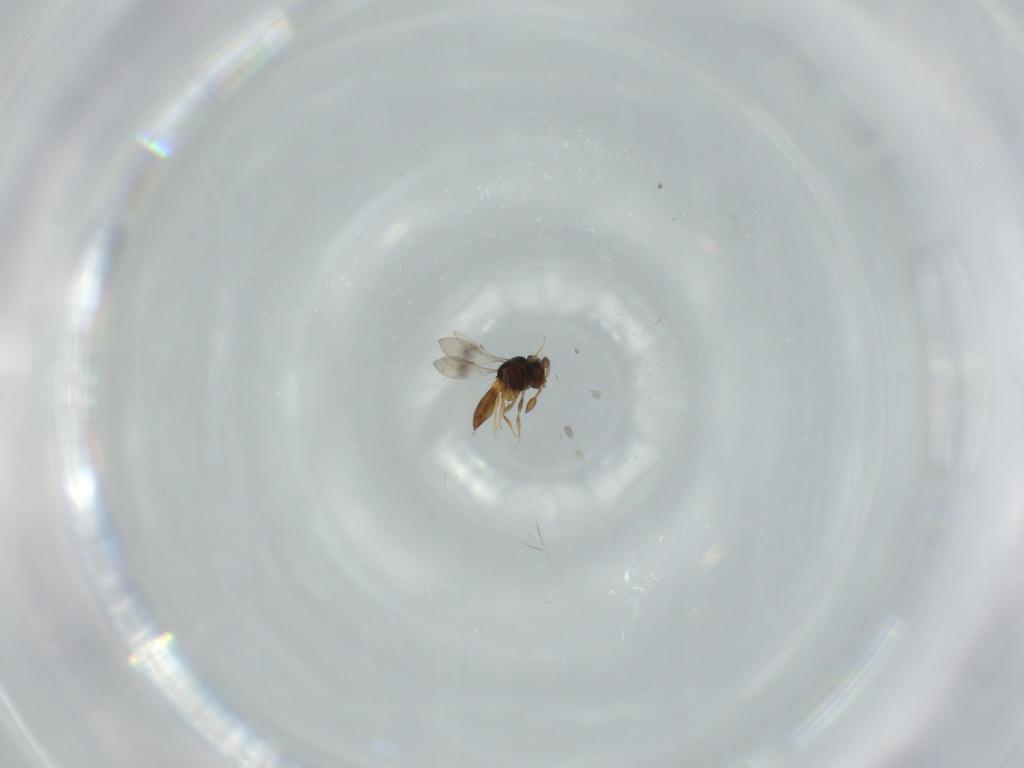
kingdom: Animalia
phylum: Arthropoda
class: Insecta
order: Hymenoptera
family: Scelionidae
